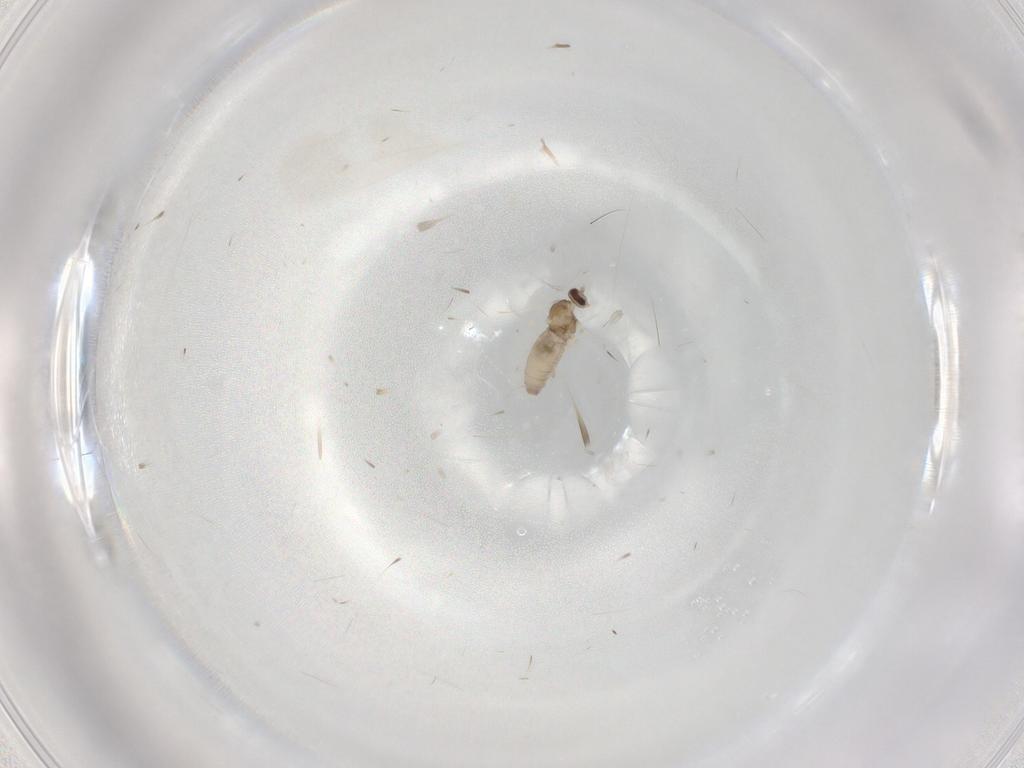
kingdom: Animalia
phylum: Arthropoda
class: Insecta
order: Diptera
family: Cecidomyiidae
